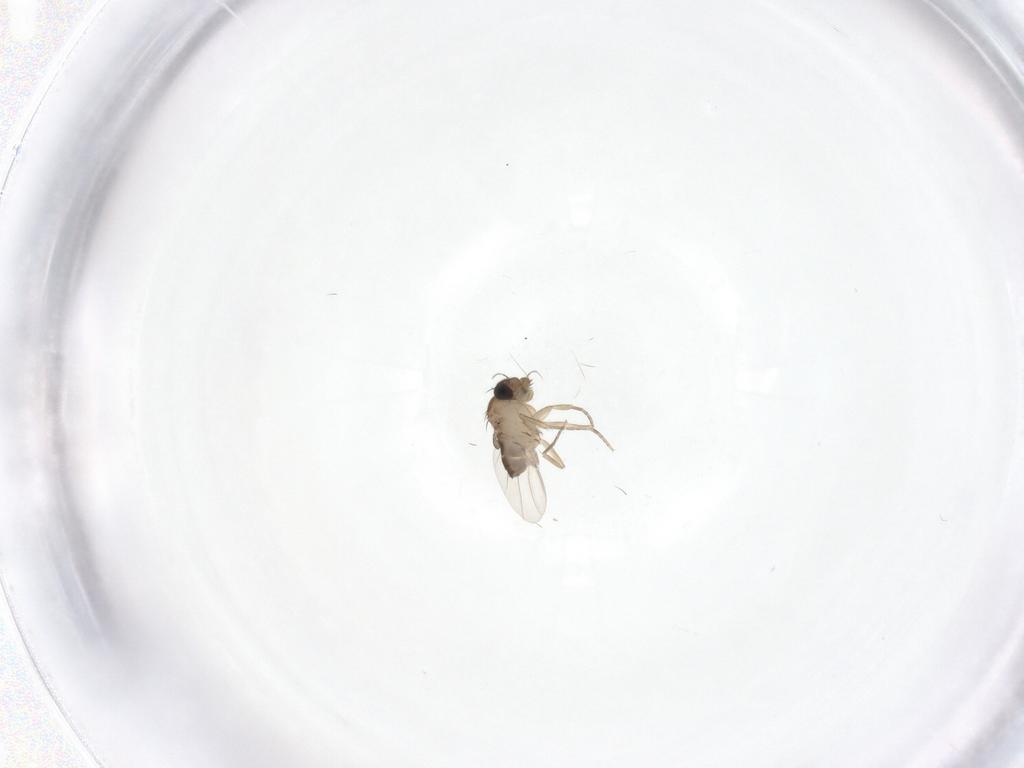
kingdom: Animalia
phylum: Arthropoda
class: Insecta
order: Diptera
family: Phoridae
